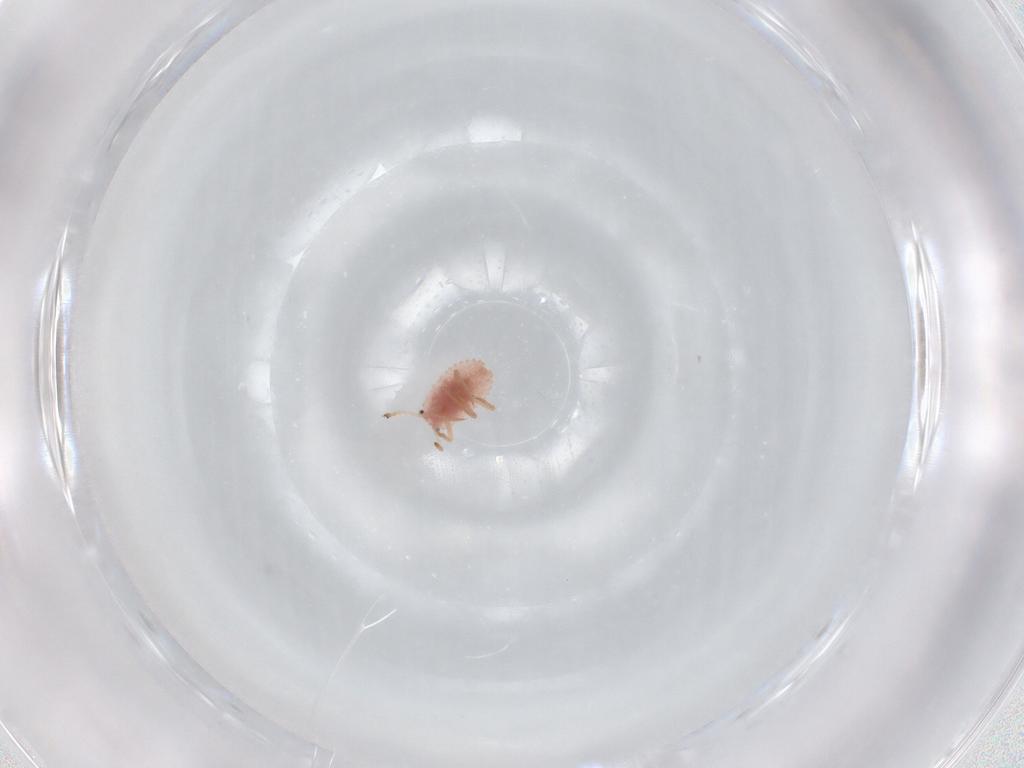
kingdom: Animalia
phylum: Arthropoda
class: Insecta
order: Hemiptera
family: Coccoidea_incertae_sedis
